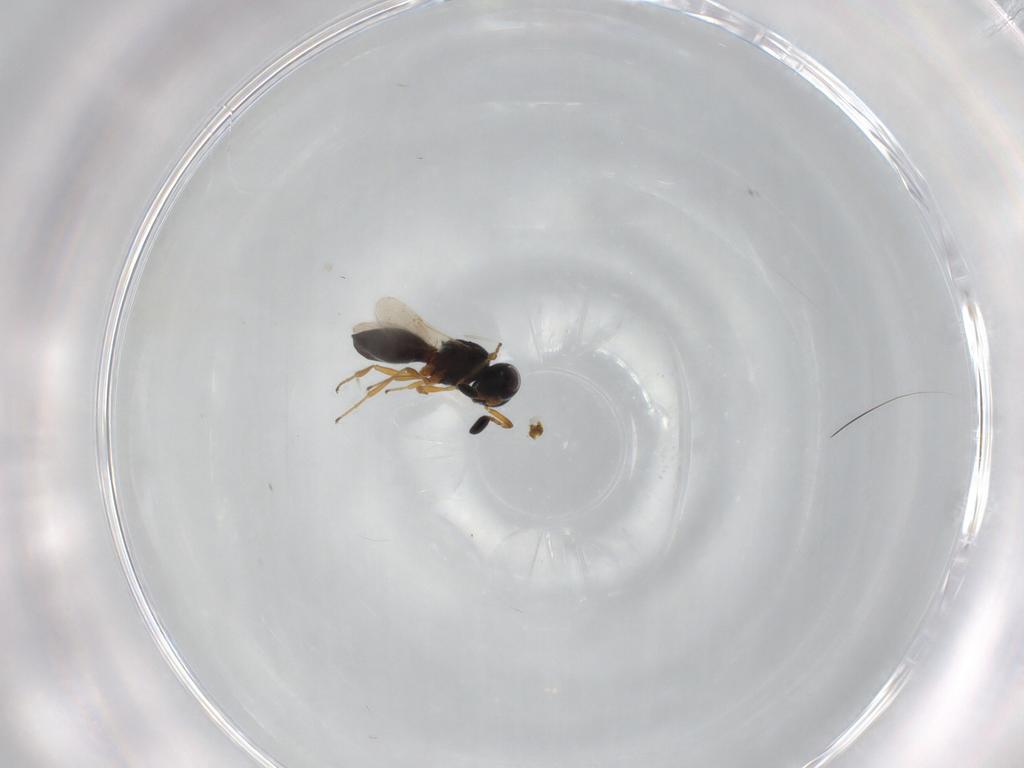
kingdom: Animalia
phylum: Arthropoda
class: Insecta
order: Hymenoptera
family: Scelionidae
